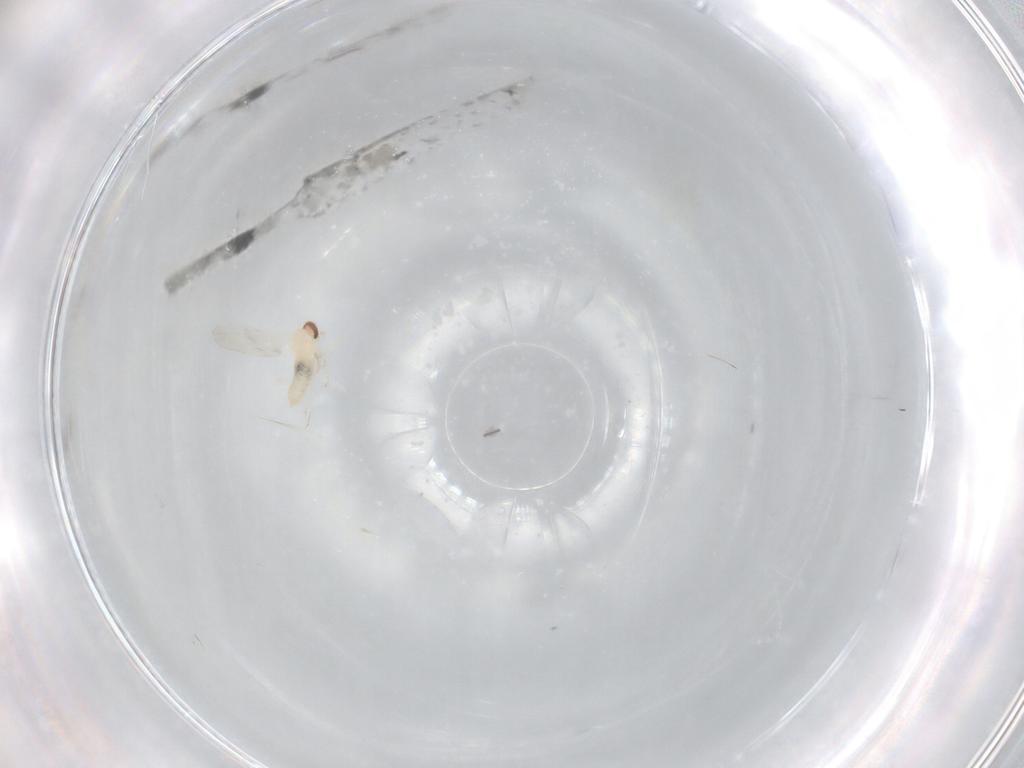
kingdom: Animalia
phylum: Arthropoda
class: Insecta
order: Diptera
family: Cecidomyiidae
